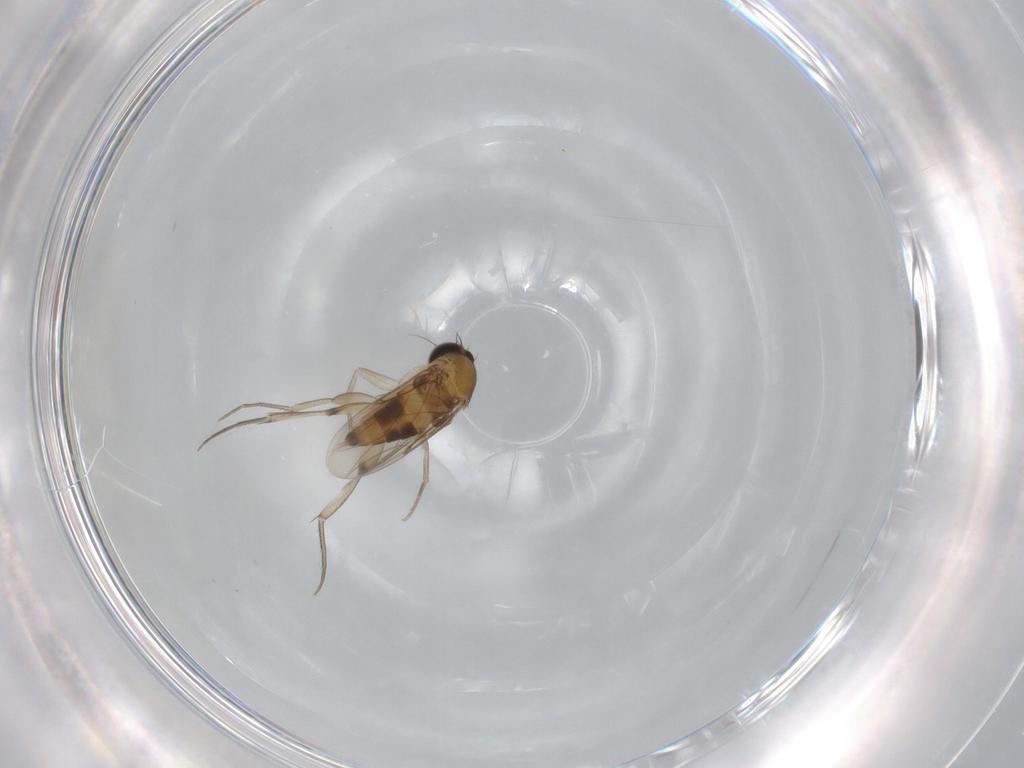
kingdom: Animalia
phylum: Arthropoda
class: Insecta
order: Diptera
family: Phoridae
